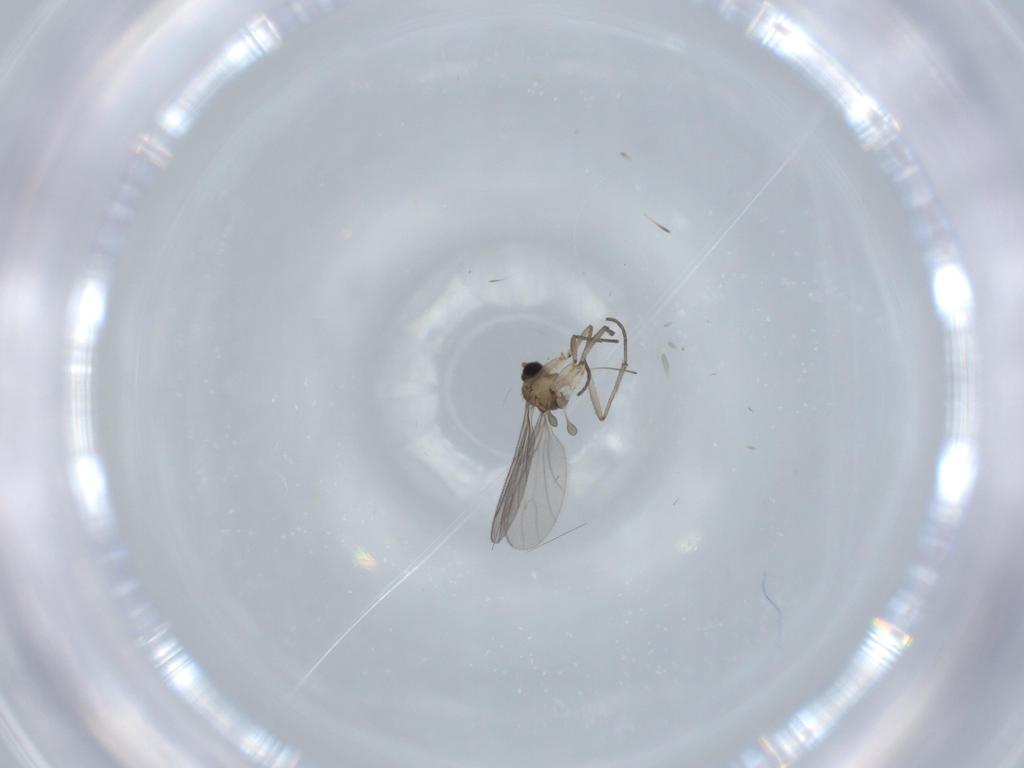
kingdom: Animalia
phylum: Arthropoda
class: Insecta
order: Diptera
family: Sciaridae
